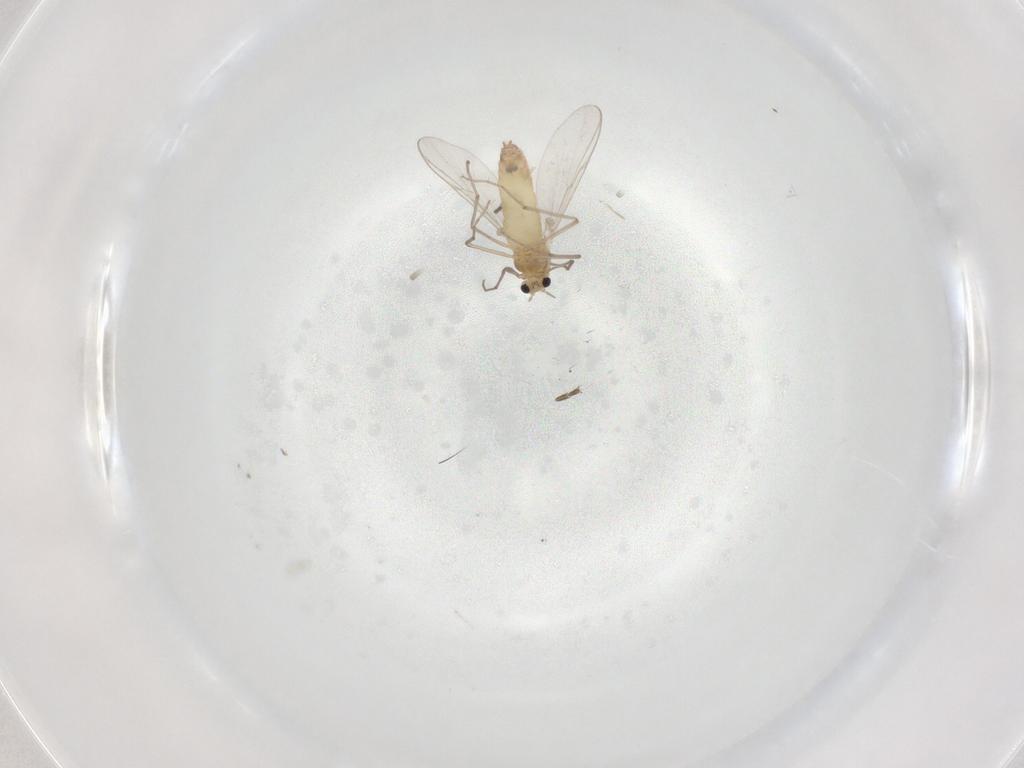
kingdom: Animalia
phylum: Arthropoda
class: Insecta
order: Diptera
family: Chironomidae
